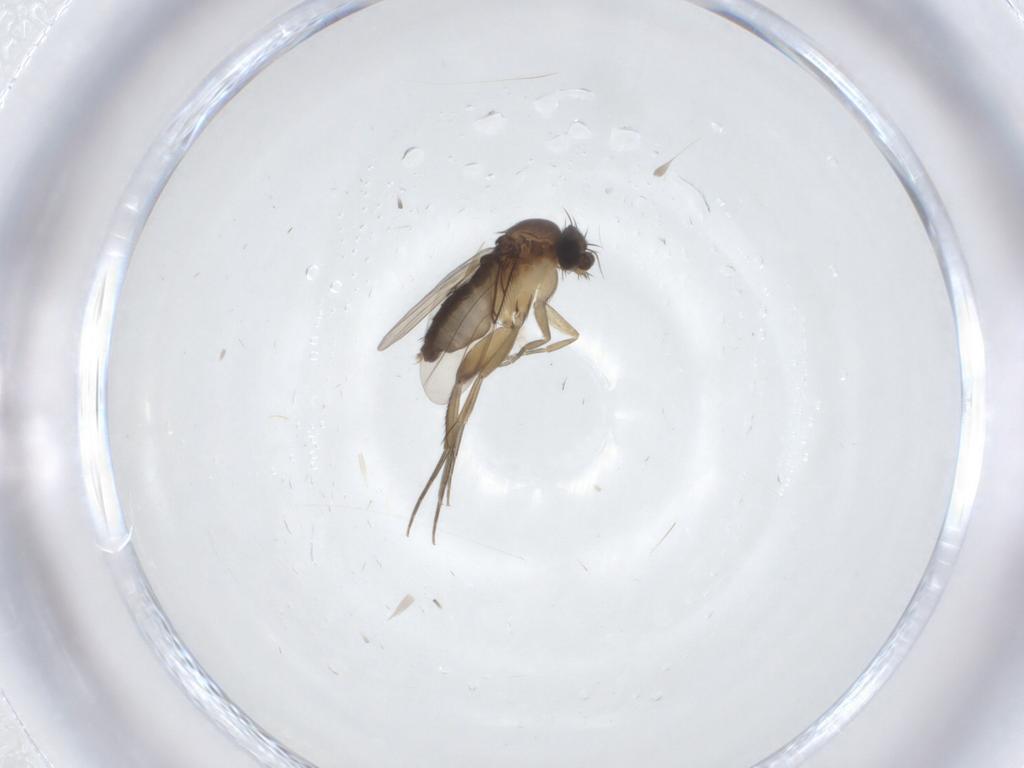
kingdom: Animalia
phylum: Arthropoda
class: Insecta
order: Diptera
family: Phoridae
